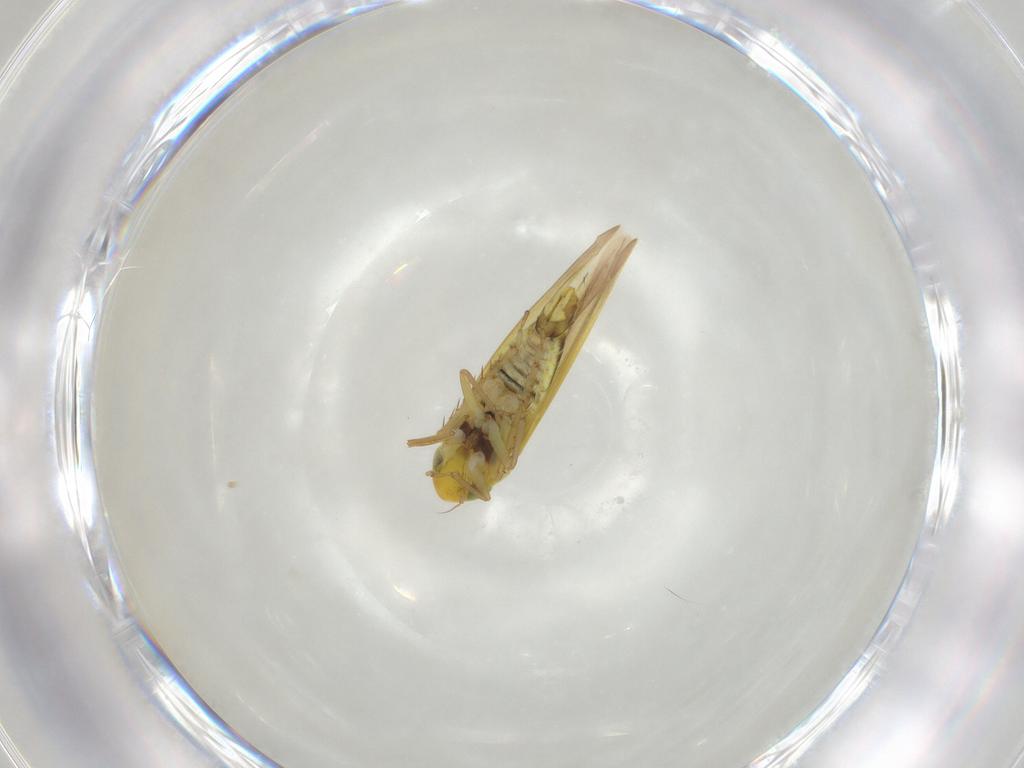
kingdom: Animalia
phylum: Arthropoda
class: Insecta
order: Hemiptera
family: Cicadellidae
